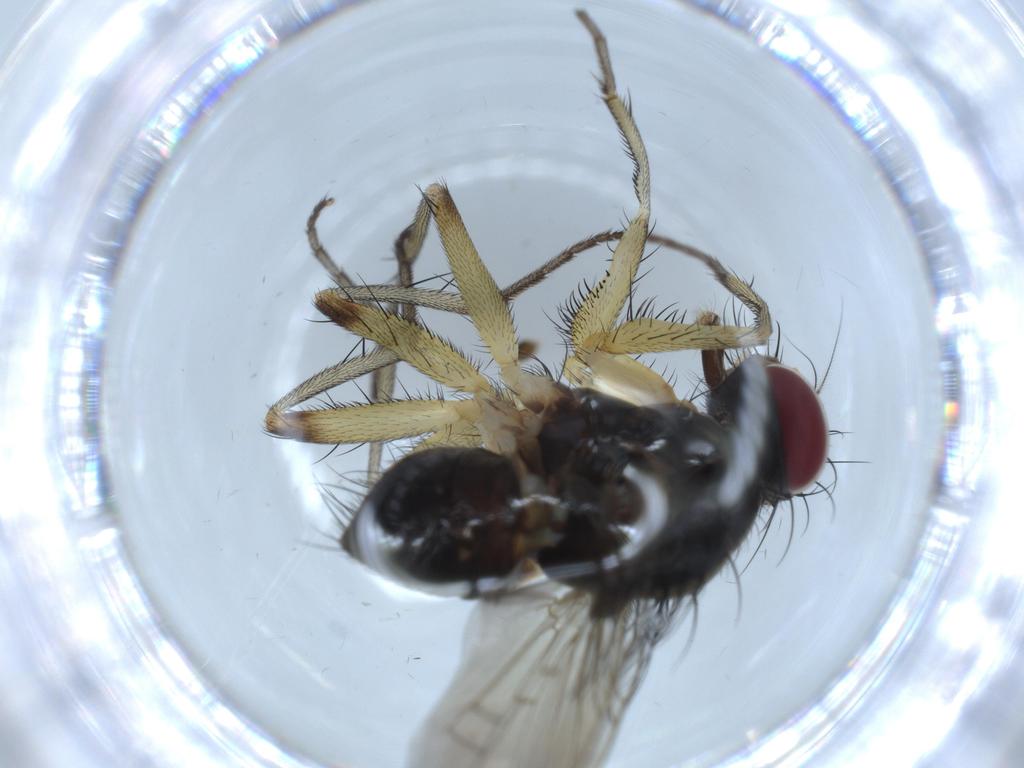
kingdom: Animalia
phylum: Arthropoda
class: Insecta
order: Diptera
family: Muscidae
